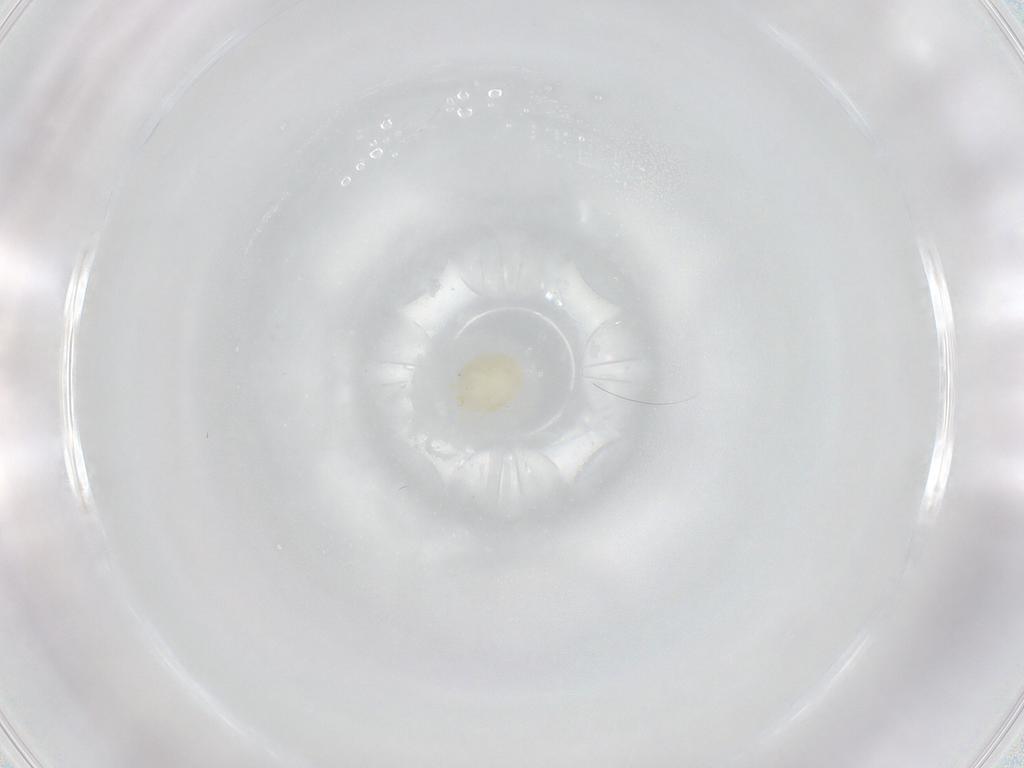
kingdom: Animalia
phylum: Arthropoda
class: Arachnida
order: Trombidiformes
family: Hydryphantidae
